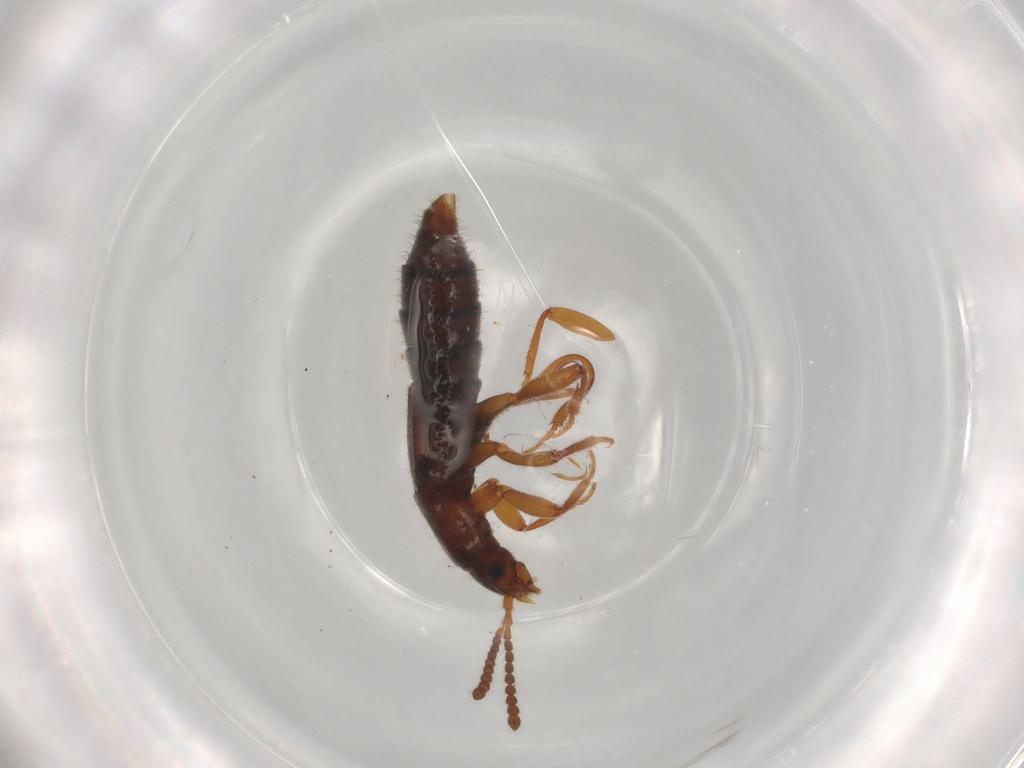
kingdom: Animalia
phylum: Arthropoda
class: Insecta
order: Coleoptera
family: Staphylinidae
